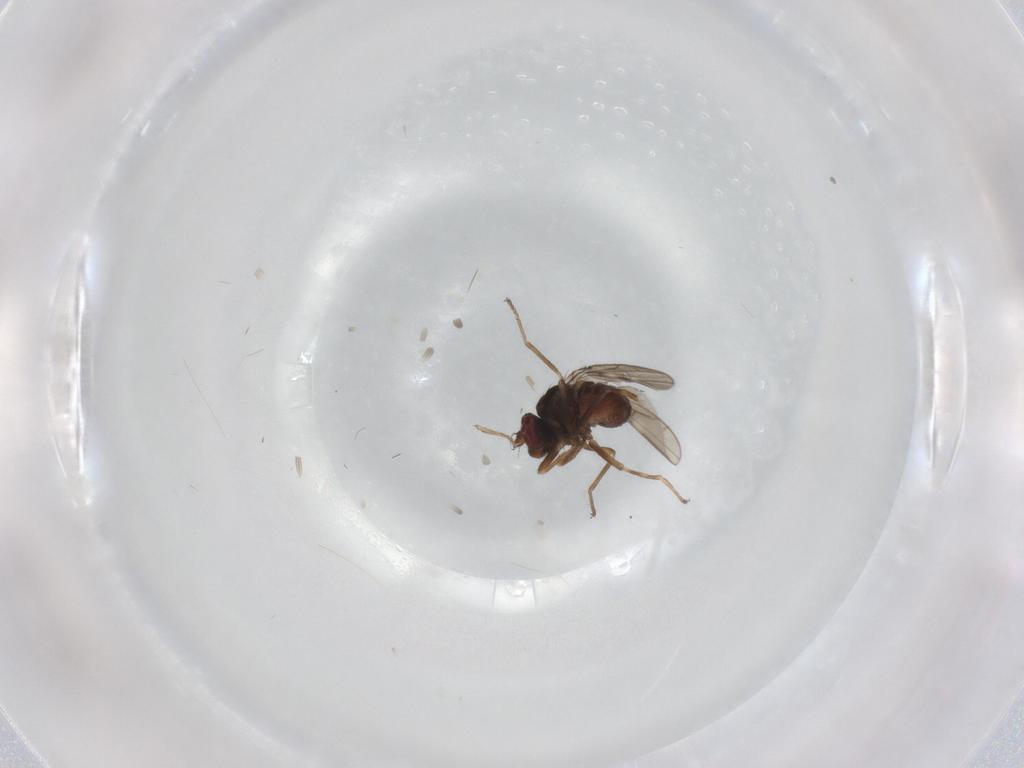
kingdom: Animalia
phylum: Arthropoda
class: Insecta
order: Diptera
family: Ephydridae
